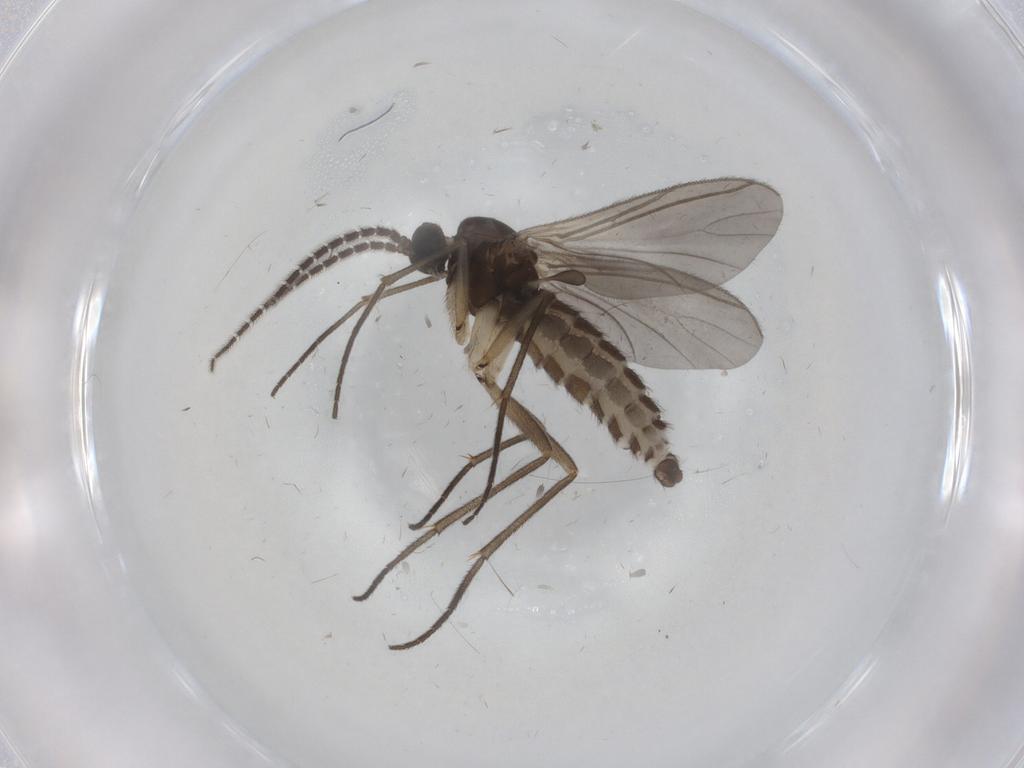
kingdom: Animalia
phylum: Arthropoda
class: Insecta
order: Diptera
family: Sciaridae
